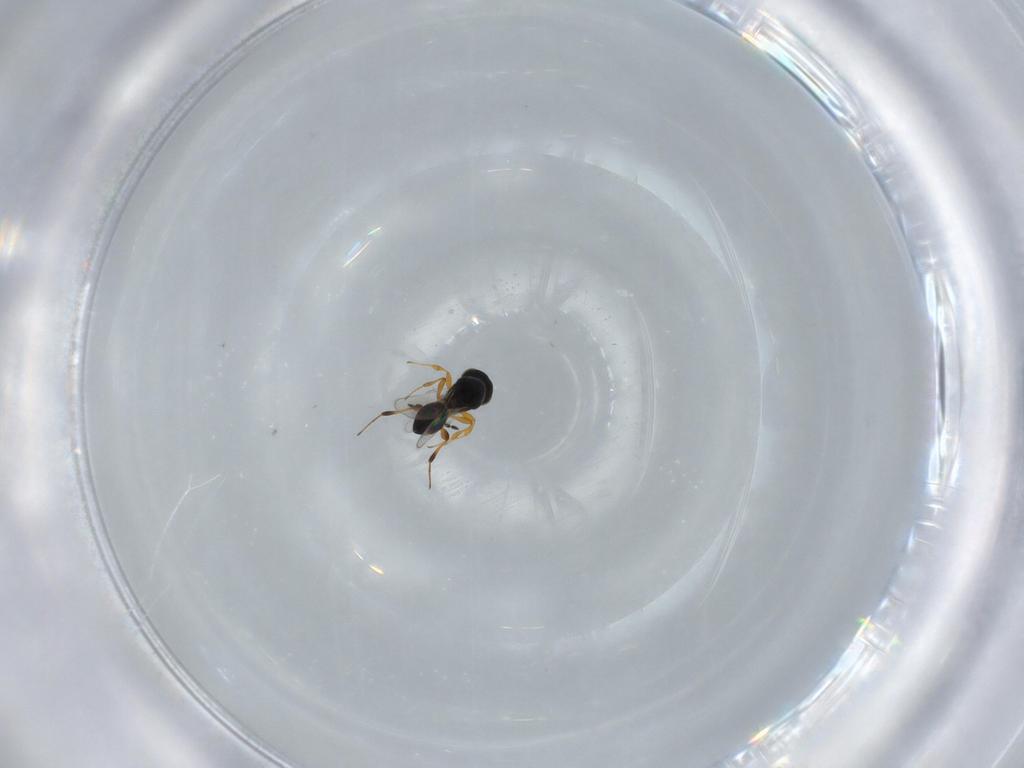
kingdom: Animalia
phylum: Arthropoda
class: Insecta
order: Hymenoptera
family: Platygastridae
